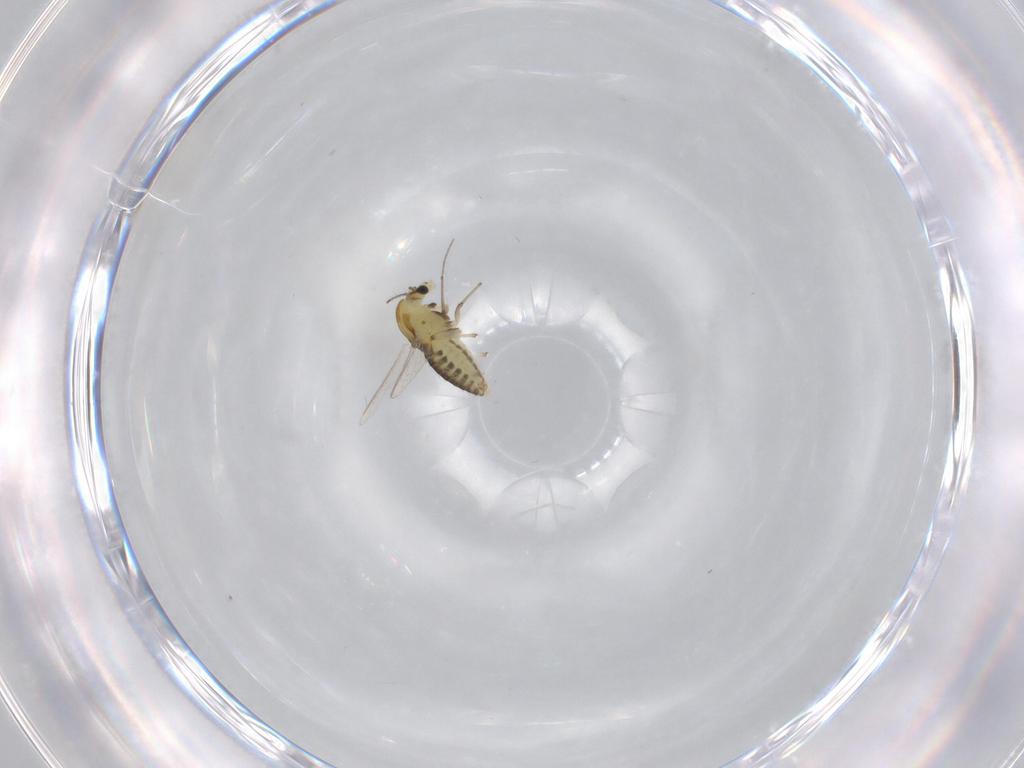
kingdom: Animalia
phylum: Arthropoda
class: Insecta
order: Diptera
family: Chironomidae
